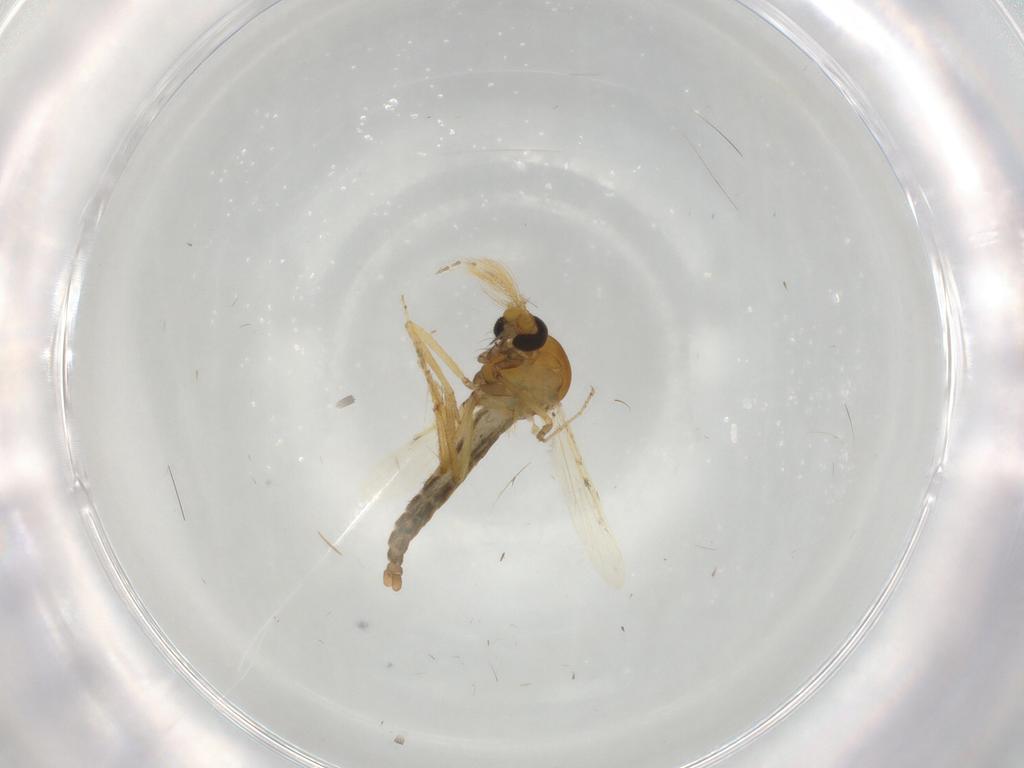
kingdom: Animalia
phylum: Arthropoda
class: Insecta
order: Diptera
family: Ceratopogonidae
